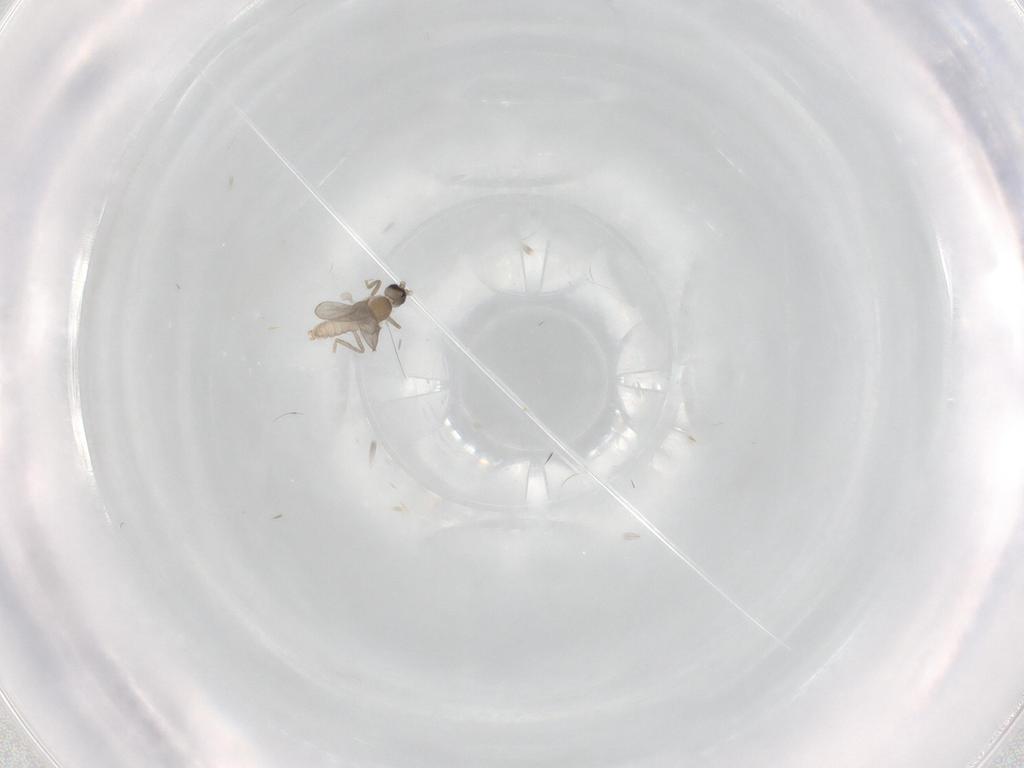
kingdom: Animalia
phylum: Arthropoda
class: Insecta
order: Diptera
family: Cecidomyiidae
